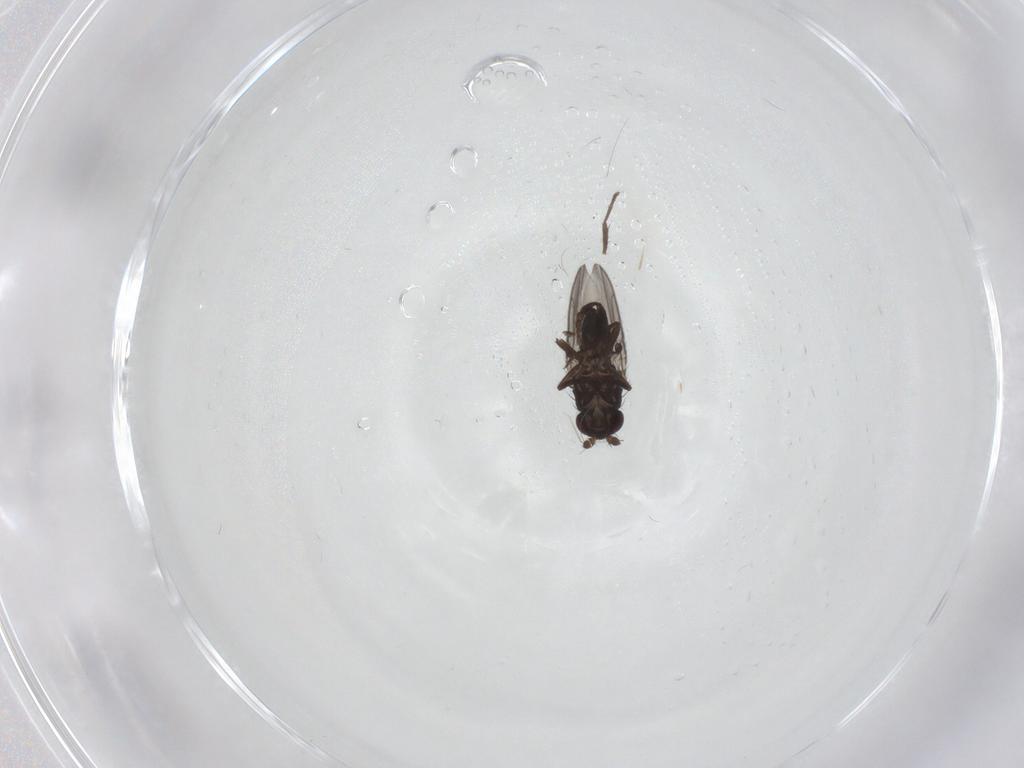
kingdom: Animalia
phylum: Arthropoda
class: Insecta
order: Diptera
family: Sphaeroceridae
